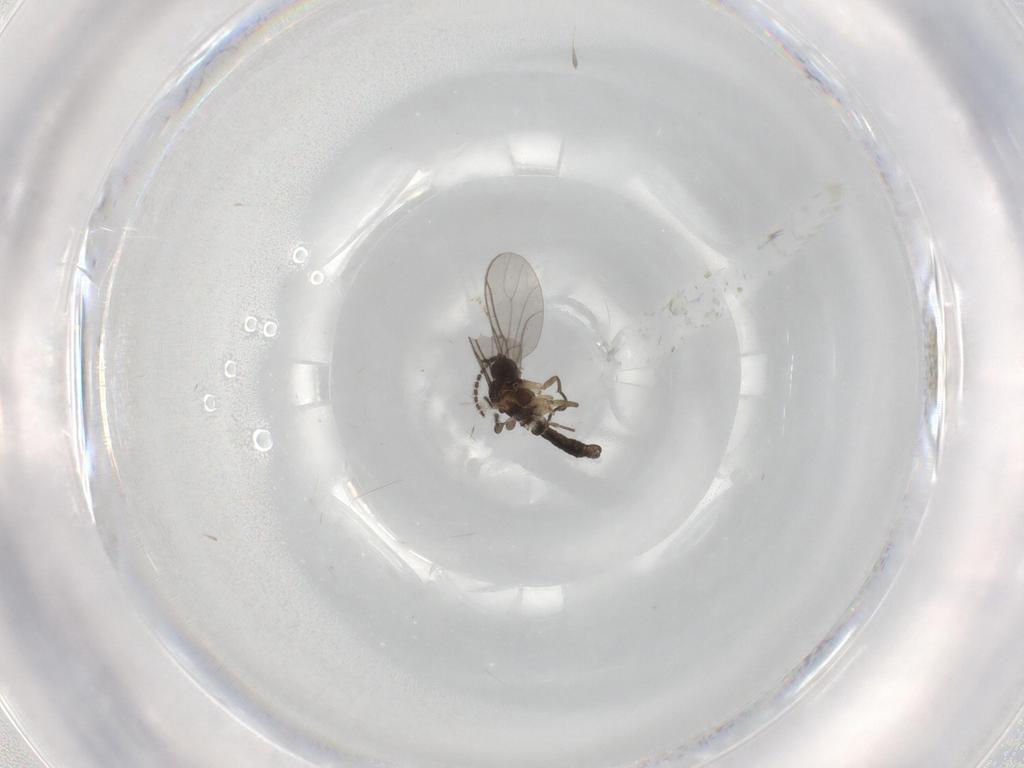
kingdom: Animalia
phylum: Arthropoda
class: Insecta
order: Diptera
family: Sciaridae
